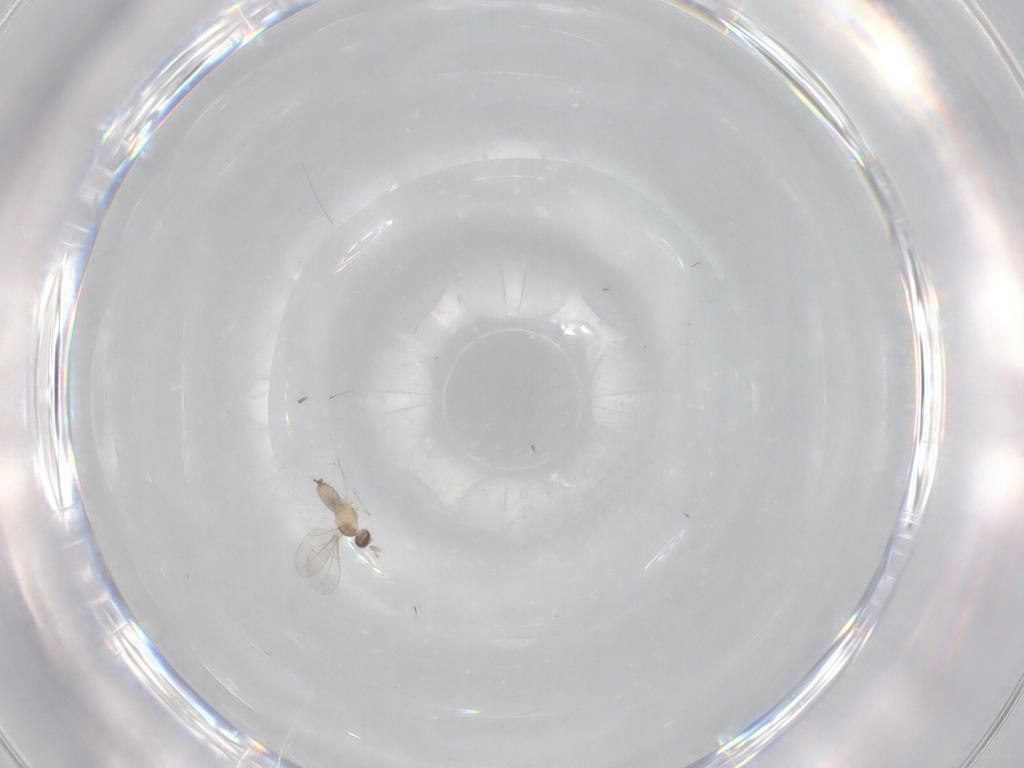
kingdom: Animalia
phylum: Arthropoda
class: Insecta
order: Diptera
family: Cecidomyiidae
